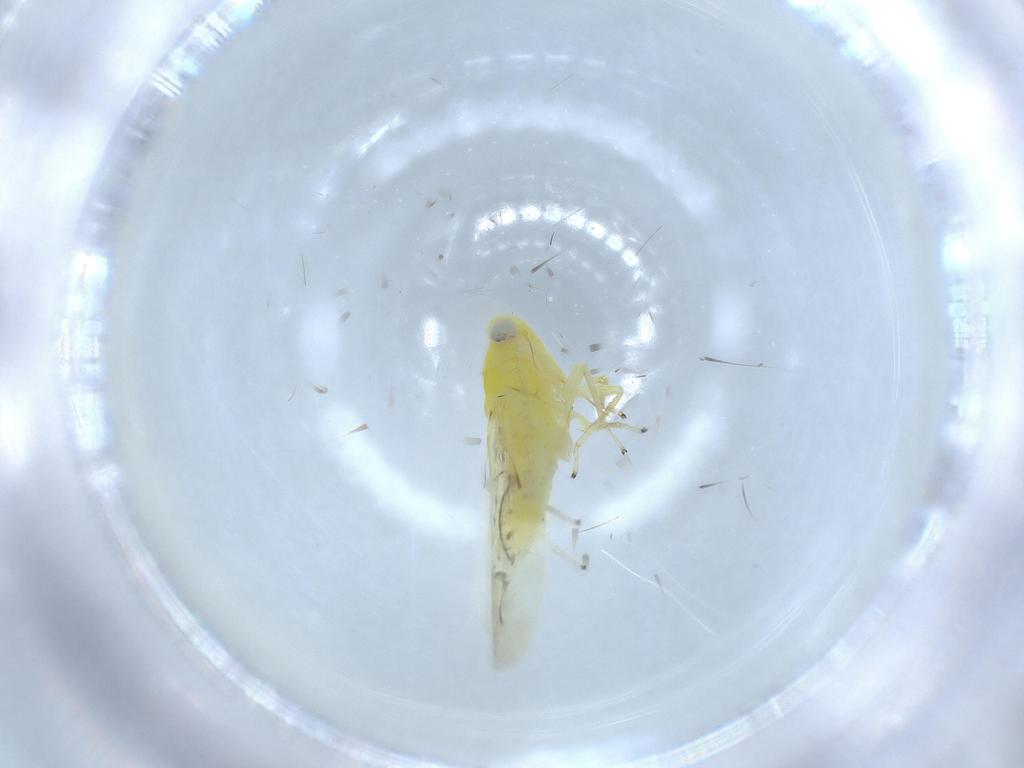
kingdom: Animalia
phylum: Arthropoda
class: Insecta
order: Hemiptera
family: Cicadellidae
